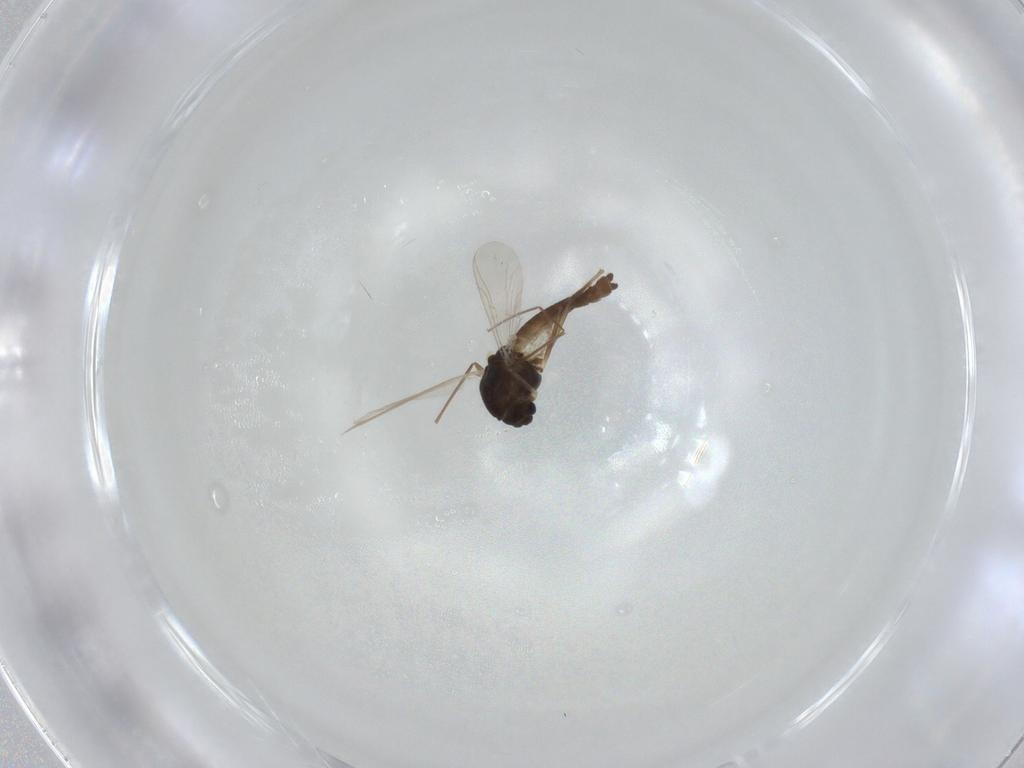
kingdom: Animalia
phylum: Arthropoda
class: Insecta
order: Diptera
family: Chironomidae
